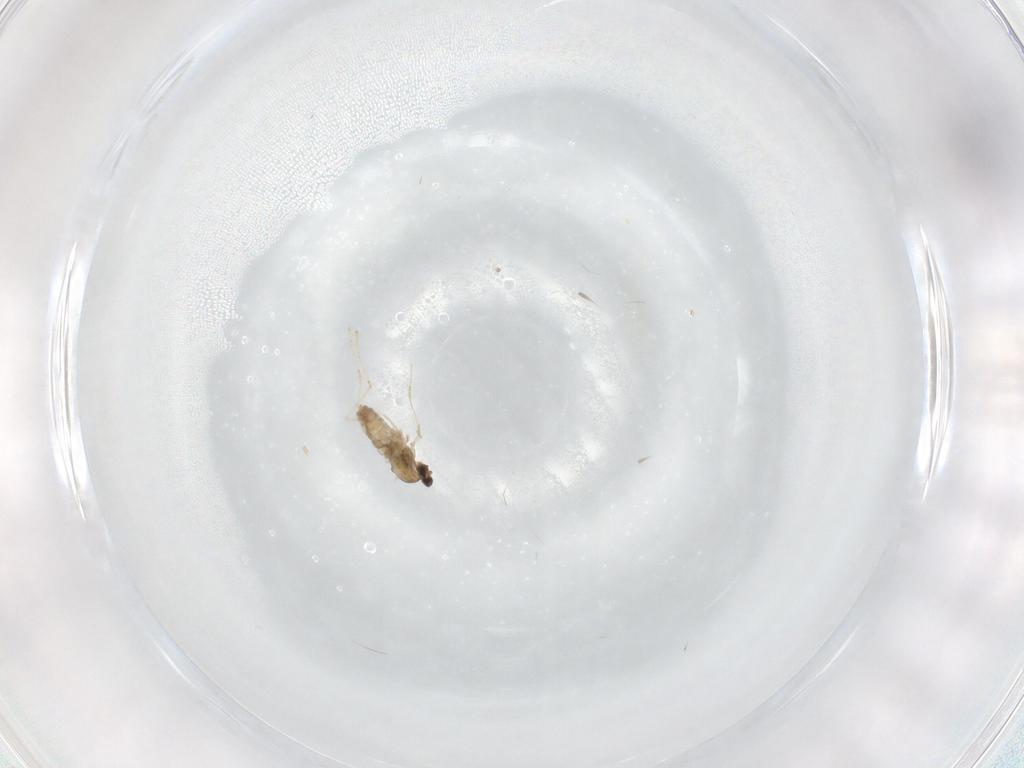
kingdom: Animalia
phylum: Arthropoda
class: Insecta
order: Diptera
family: Cecidomyiidae
